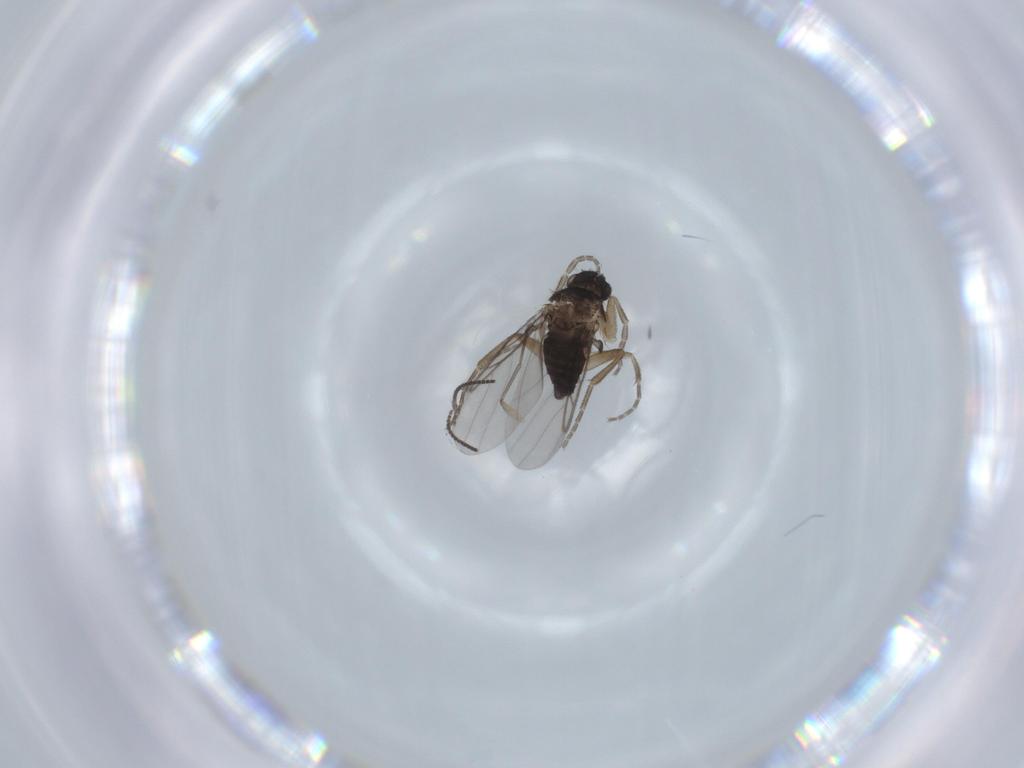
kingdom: Animalia
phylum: Arthropoda
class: Insecta
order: Diptera
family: Sciaridae
